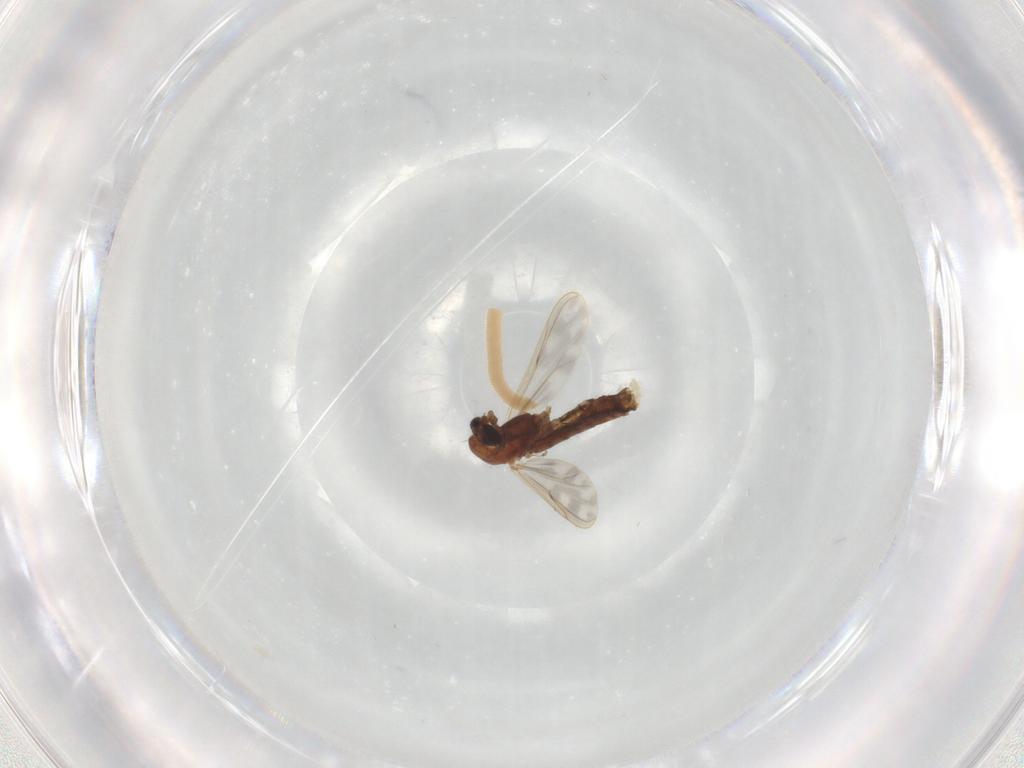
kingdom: Animalia
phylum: Arthropoda
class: Insecta
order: Diptera
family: Chironomidae
